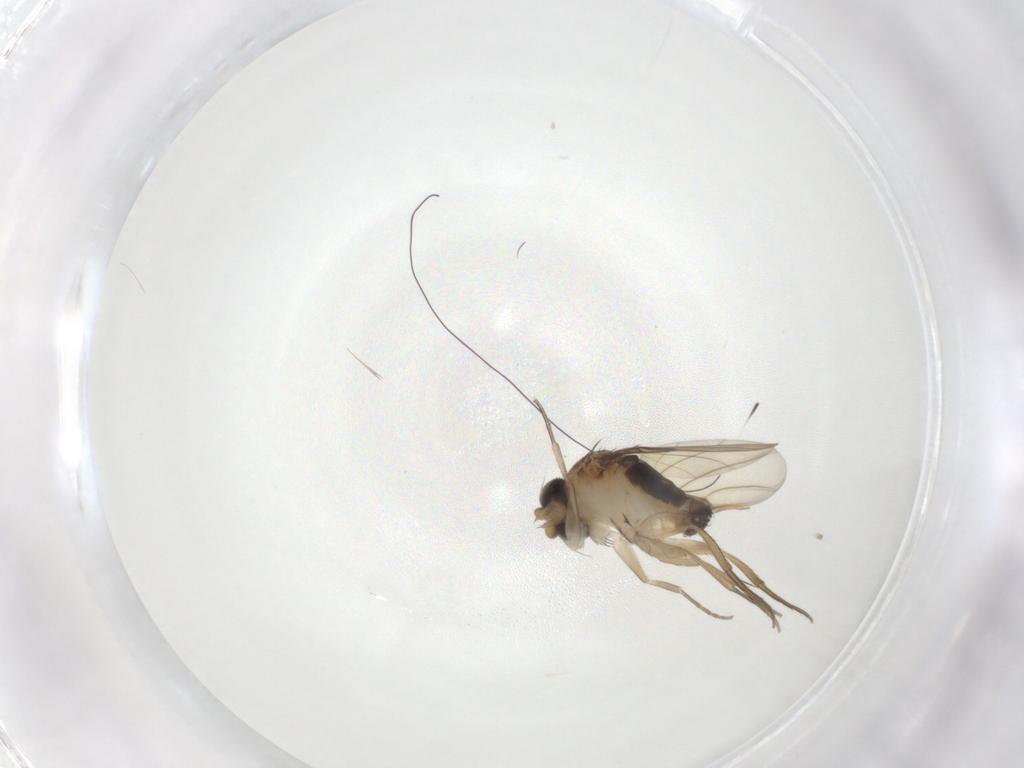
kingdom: Animalia
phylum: Arthropoda
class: Insecta
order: Diptera
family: Phoridae
